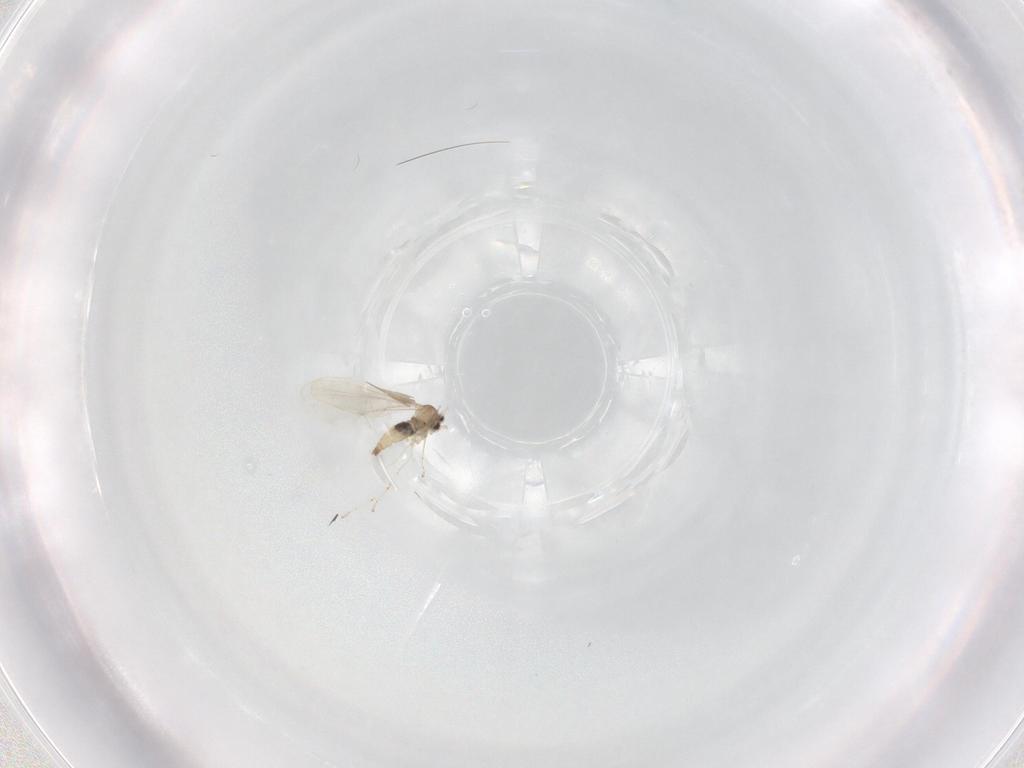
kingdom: Animalia
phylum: Arthropoda
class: Insecta
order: Diptera
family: Cecidomyiidae
